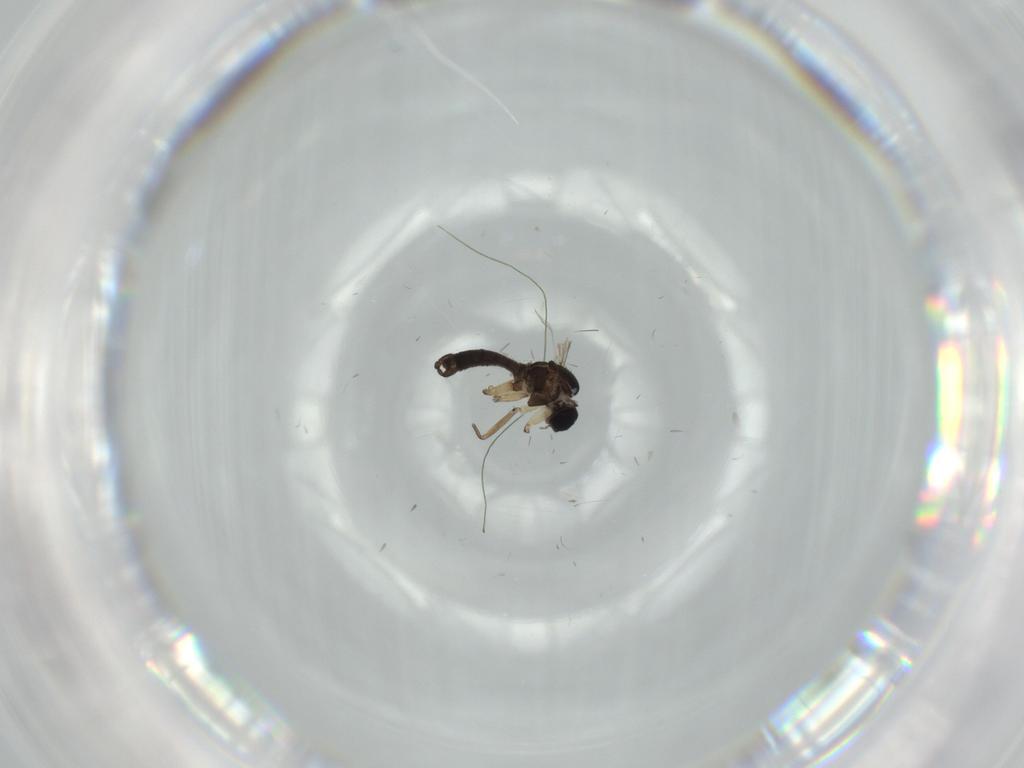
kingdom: Animalia
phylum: Arthropoda
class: Insecta
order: Diptera
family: Sciaridae
